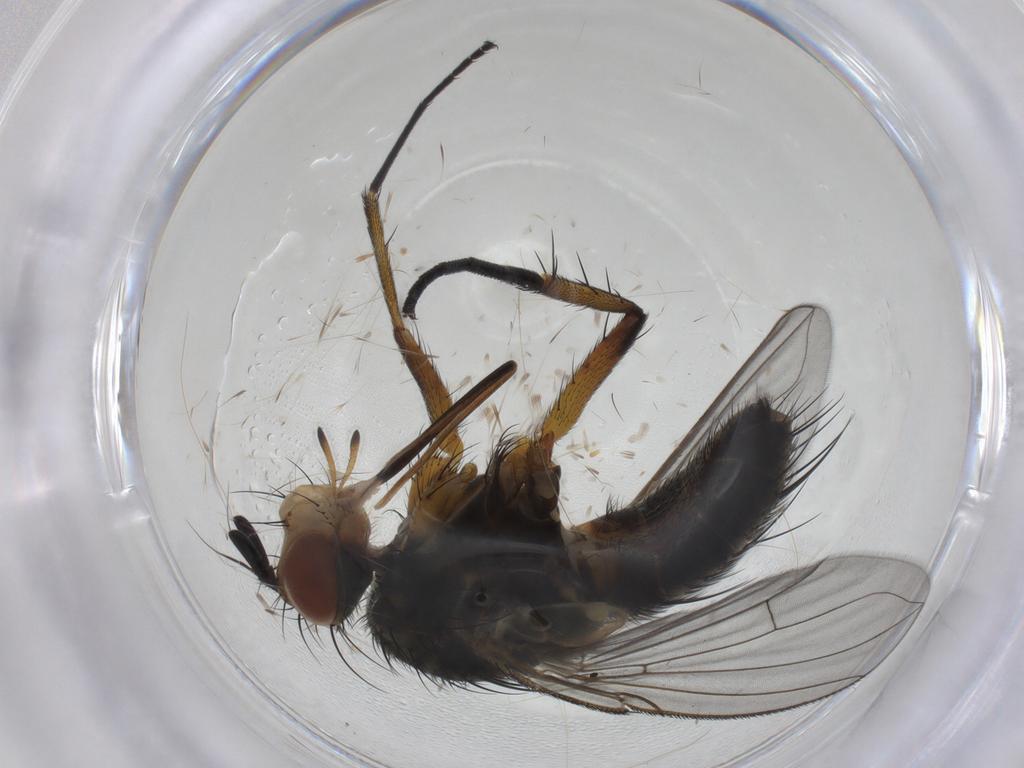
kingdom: Animalia
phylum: Arthropoda
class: Insecta
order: Diptera
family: Tachinidae
